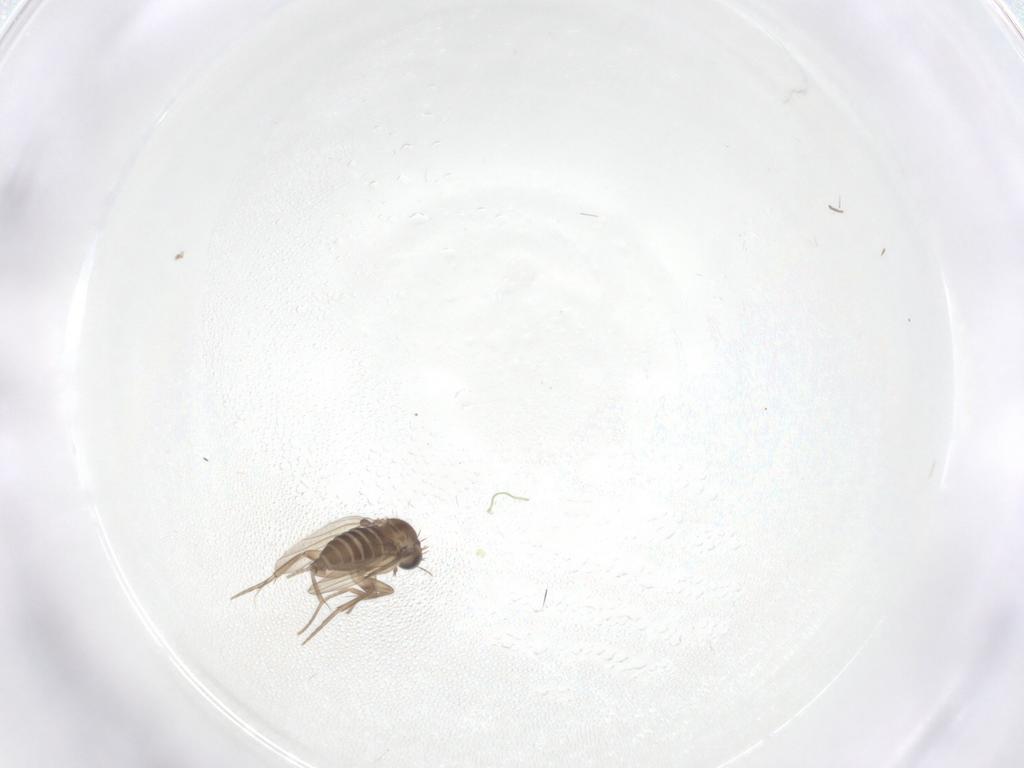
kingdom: Animalia
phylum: Arthropoda
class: Insecta
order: Diptera
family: Phoridae
